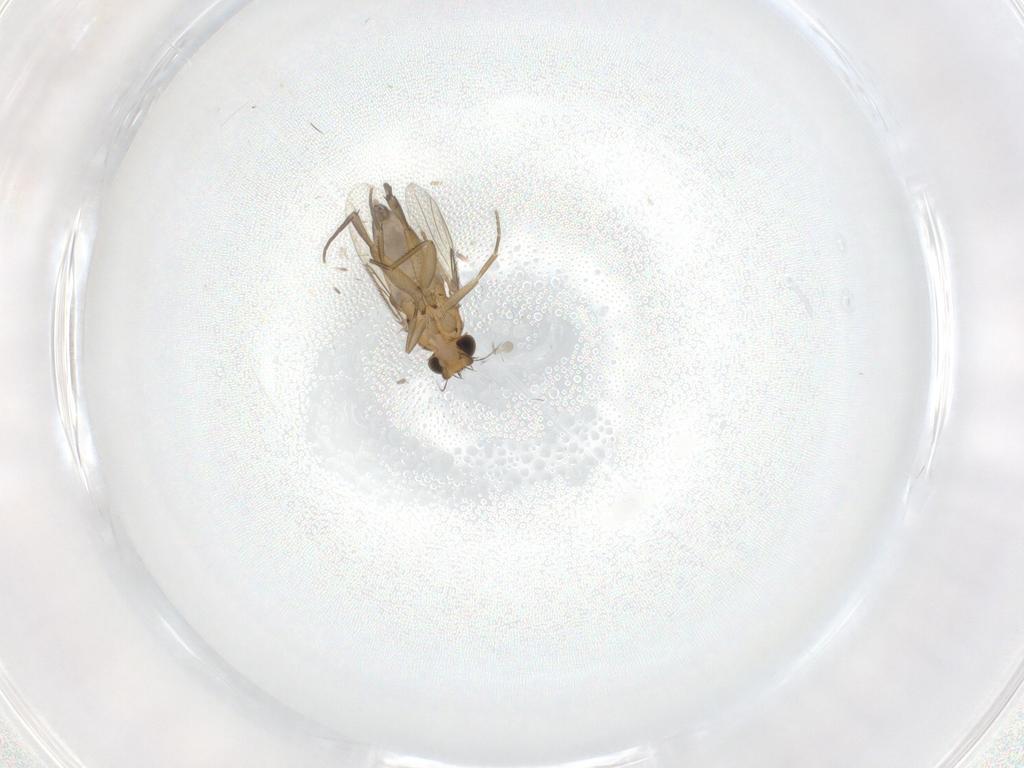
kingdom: Animalia
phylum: Arthropoda
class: Insecta
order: Diptera
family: Phoridae
